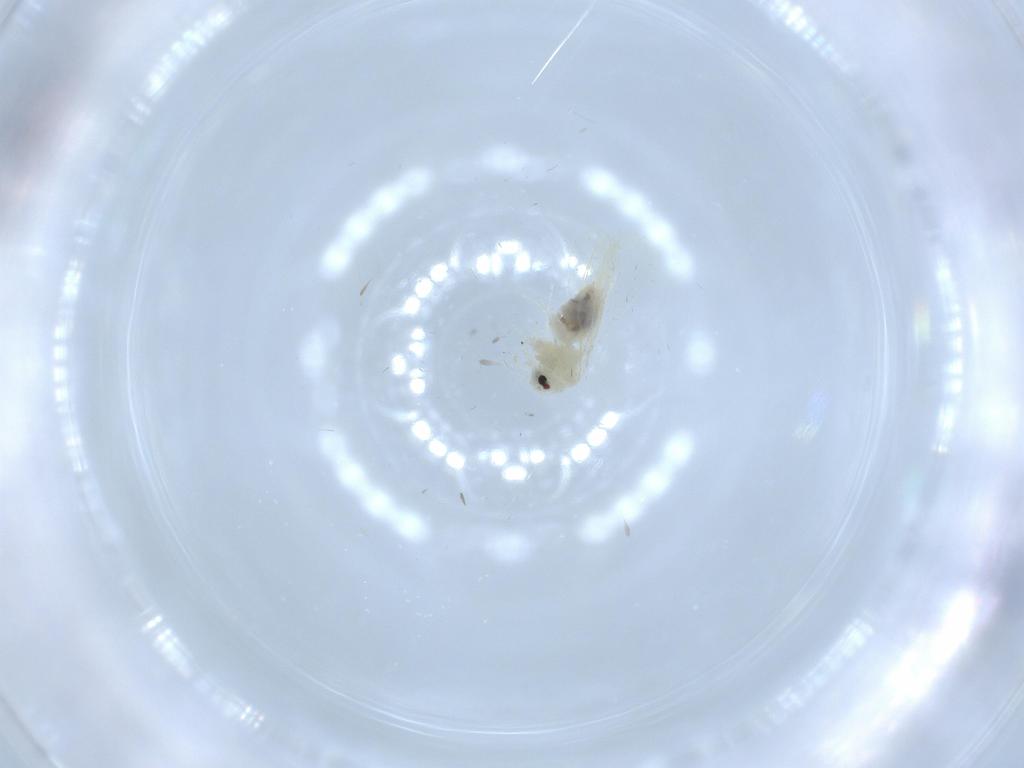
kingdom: Animalia
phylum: Arthropoda
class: Insecta
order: Hemiptera
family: Aleyrodidae
